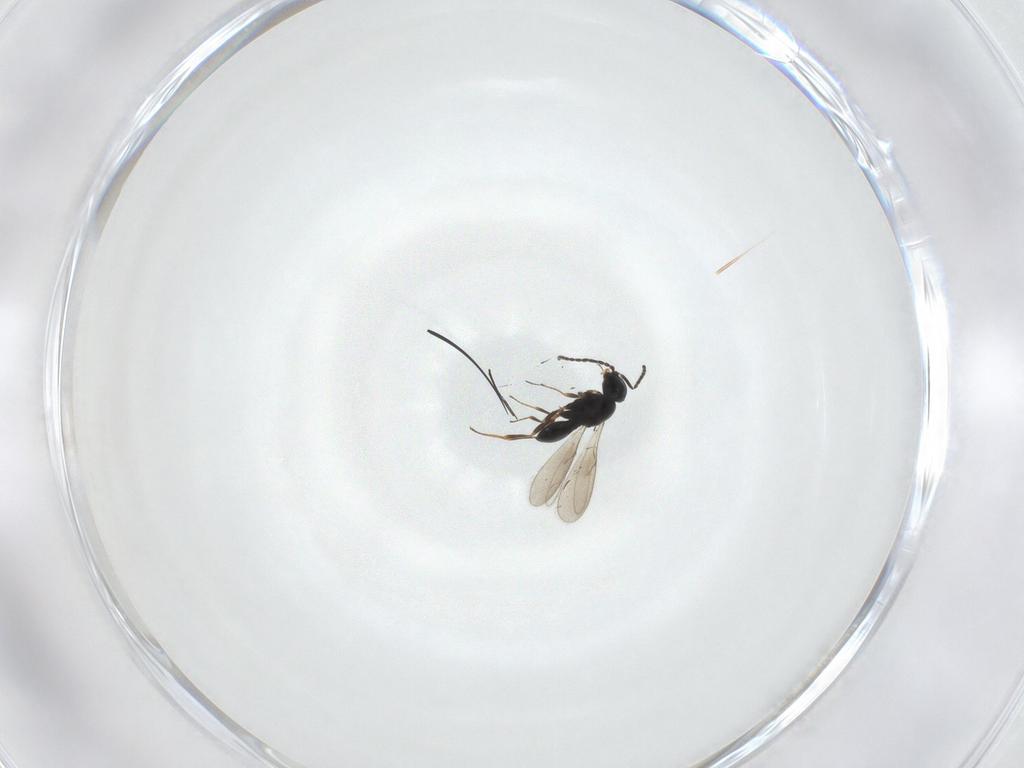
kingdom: Animalia
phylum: Arthropoda
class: Insecta
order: Hymenoptera
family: Scelionidae
